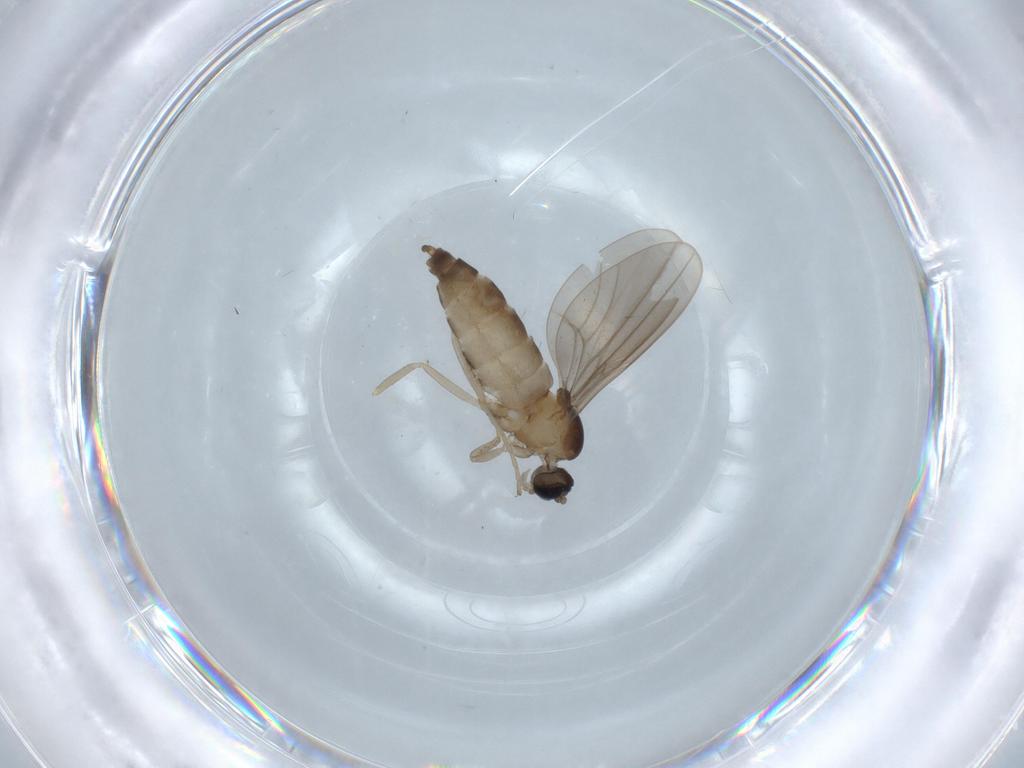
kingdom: Animalia
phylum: Arthropoda
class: Insecta
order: Diptera
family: Cecidomyiidae
